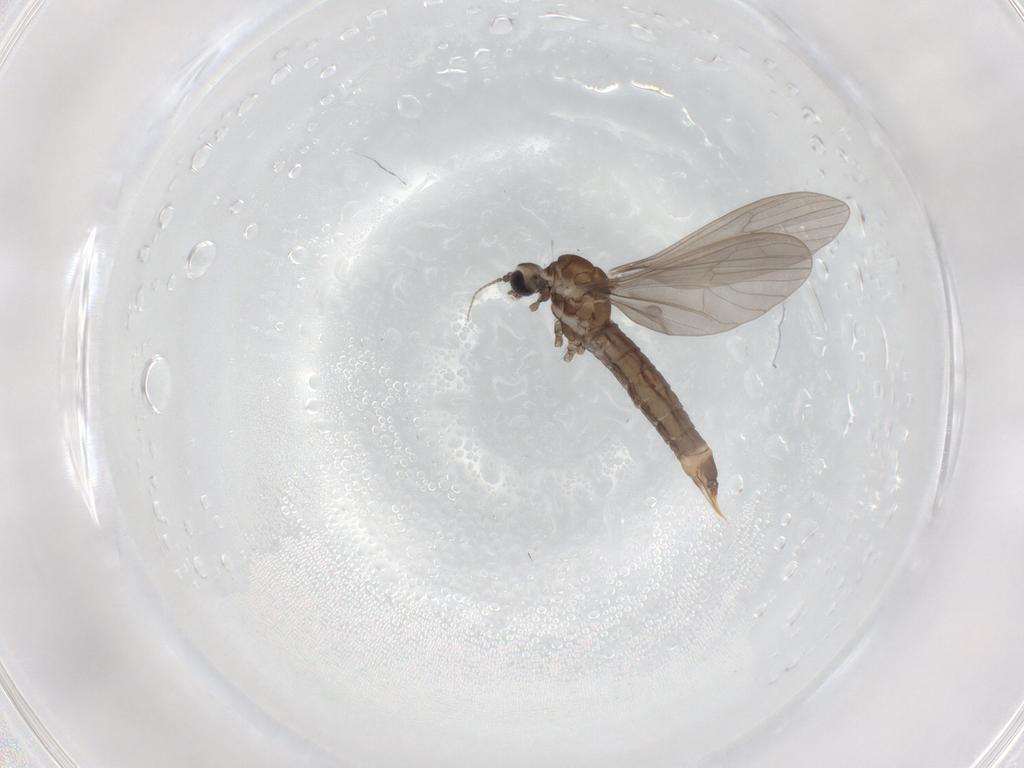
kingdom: Animalia
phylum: Arthropoda
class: Insecta
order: Diptera
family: Limoniidae
